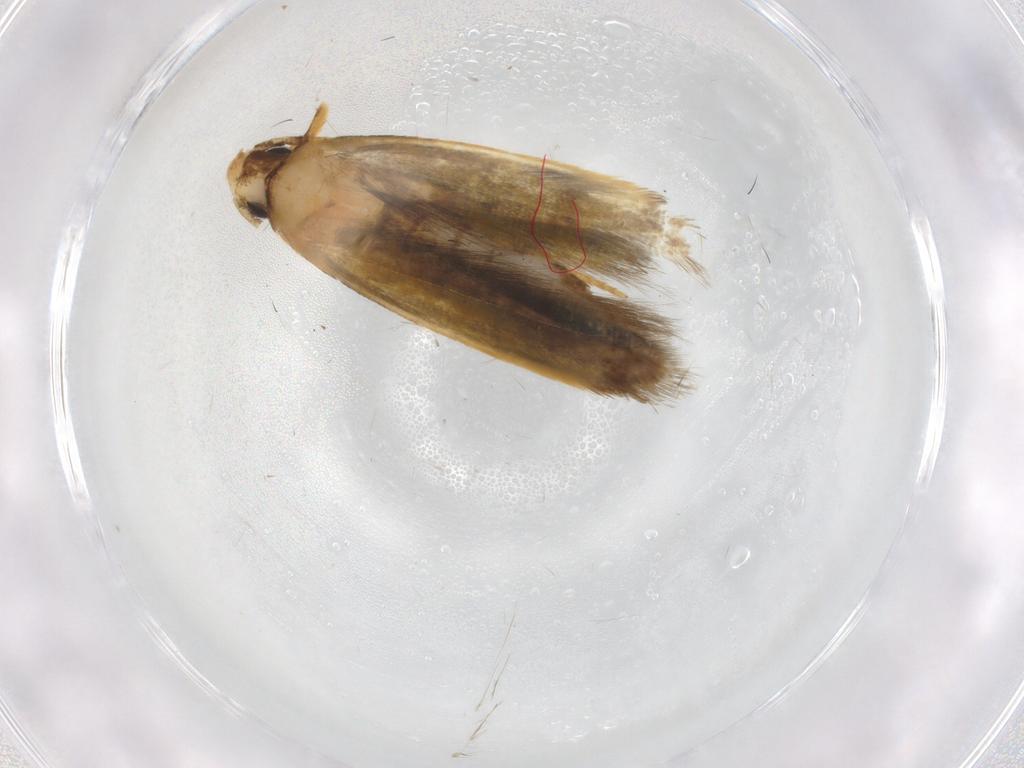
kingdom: Animalia
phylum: Arthropoda
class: Insecta
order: Lepidoptera
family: Tineidae
